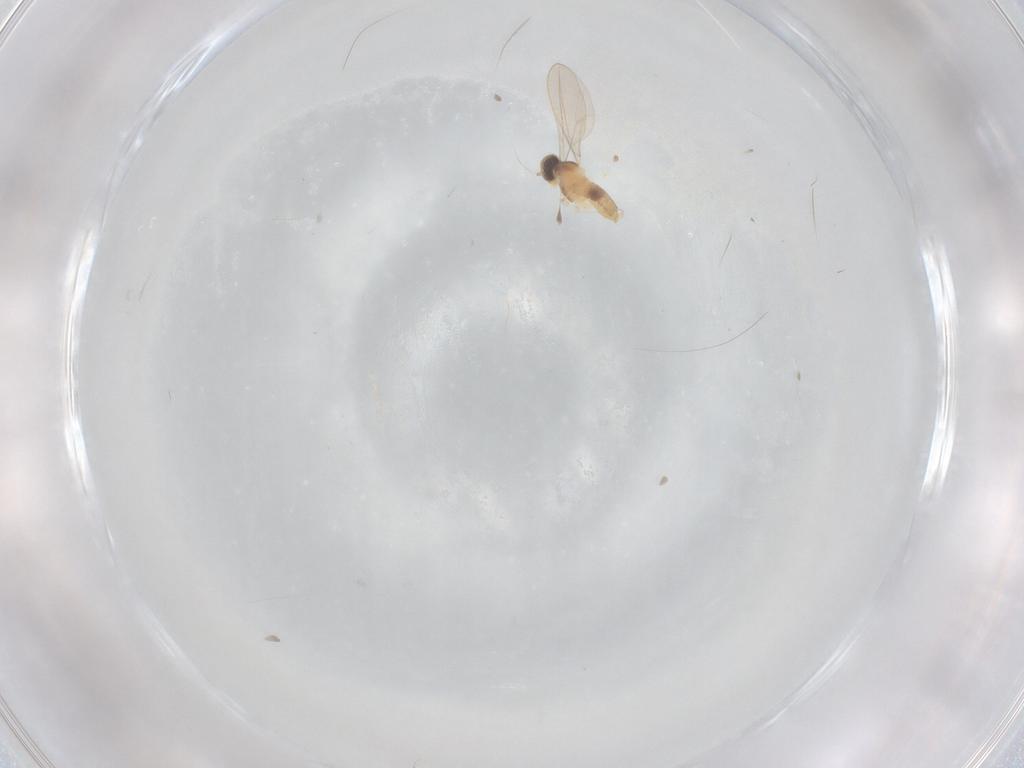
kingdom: Animalia
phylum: Arthropoda
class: Insecta
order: Diptera
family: Cecidomyiidae
